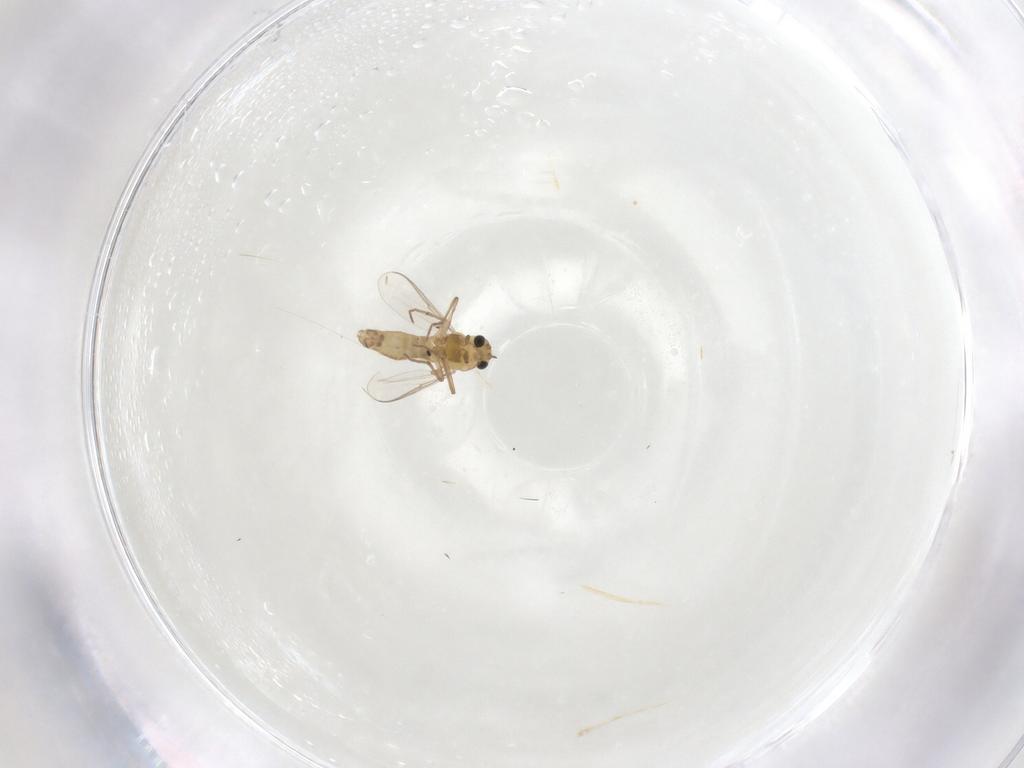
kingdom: Animalia
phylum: Arthropoda
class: Insecta
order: Diptera
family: Chironomidae
